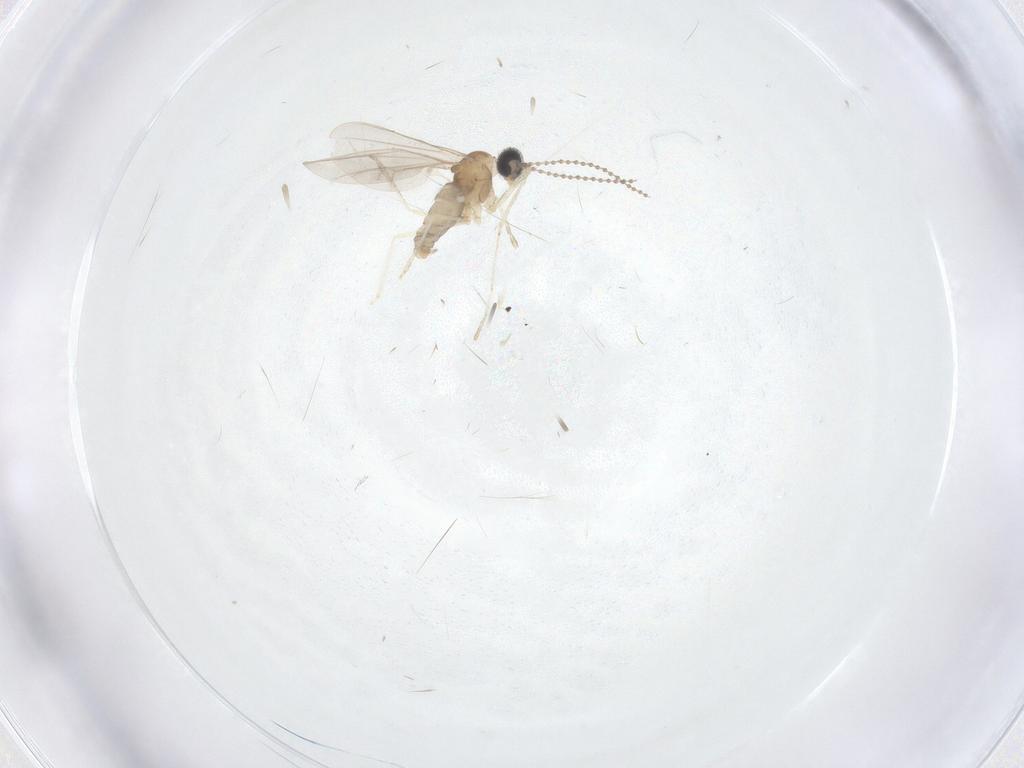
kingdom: Animalia
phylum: Arthropoda
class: Insecta
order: Diptera
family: Cecidomyiidae
